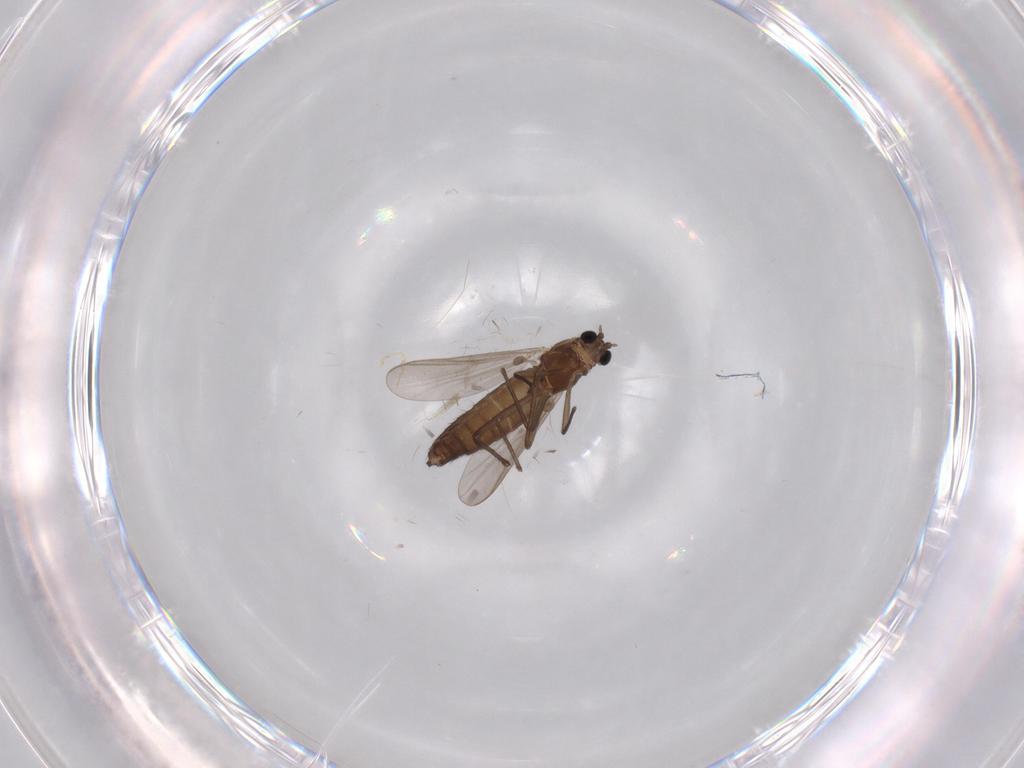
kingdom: Animalia
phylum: Arthropoda
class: Insecta
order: Diptera
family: Chironomidae
